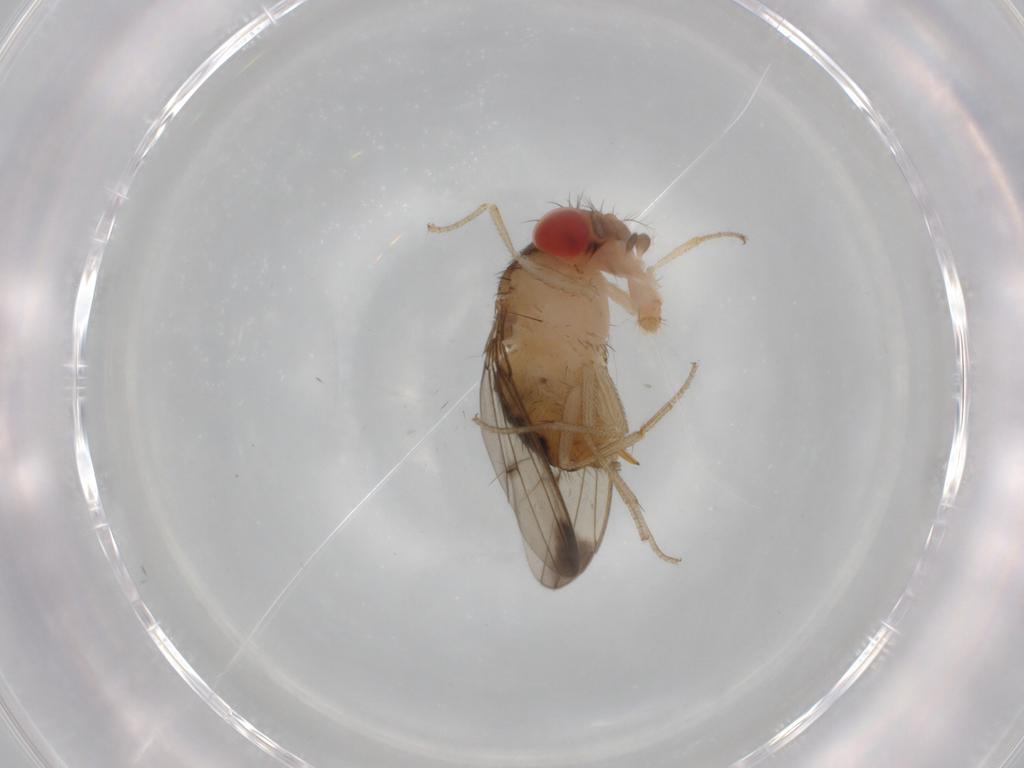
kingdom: Animalia
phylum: Arthropoda
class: Insecta
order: Diptera
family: Drosophilidae
